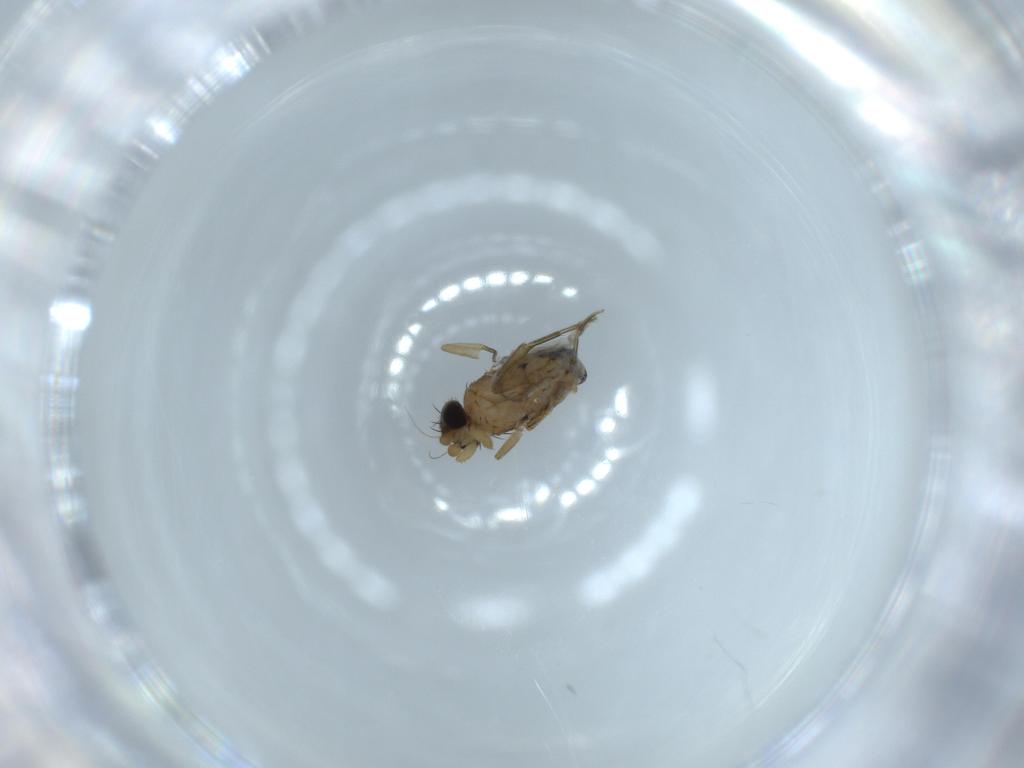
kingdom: Animalia
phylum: Arthropoda
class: Insecta
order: Diptera
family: Cecidomyiidae
